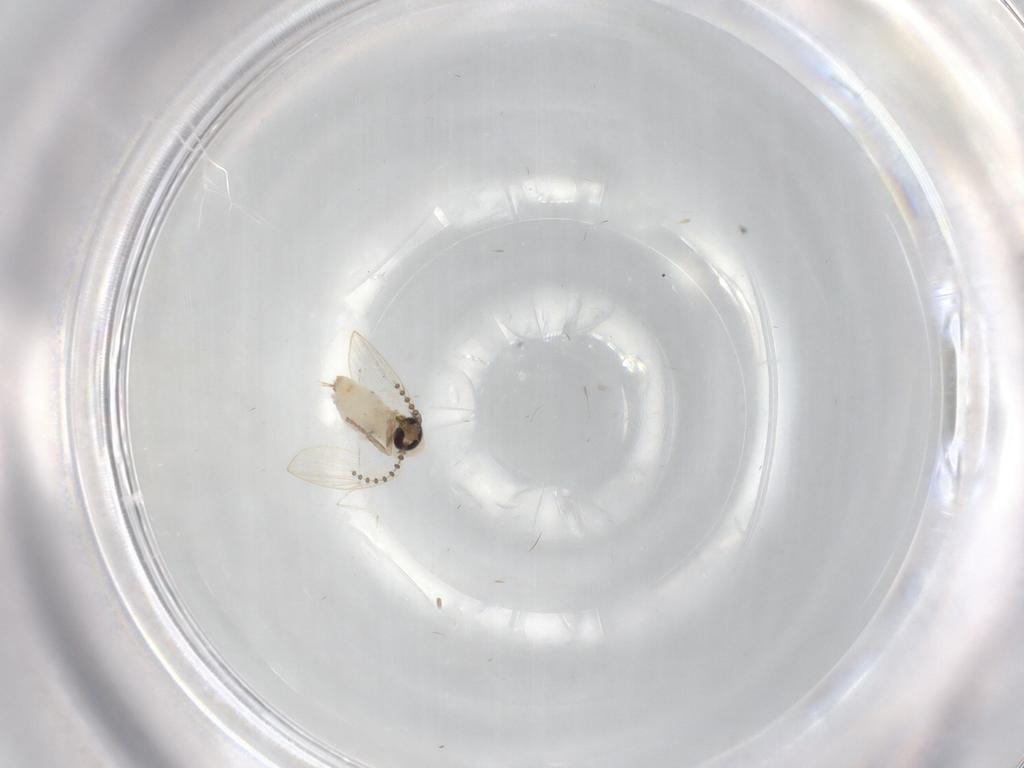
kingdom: Animalia
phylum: Arthropoda
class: Insecta
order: Diptera
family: Psychodidae
